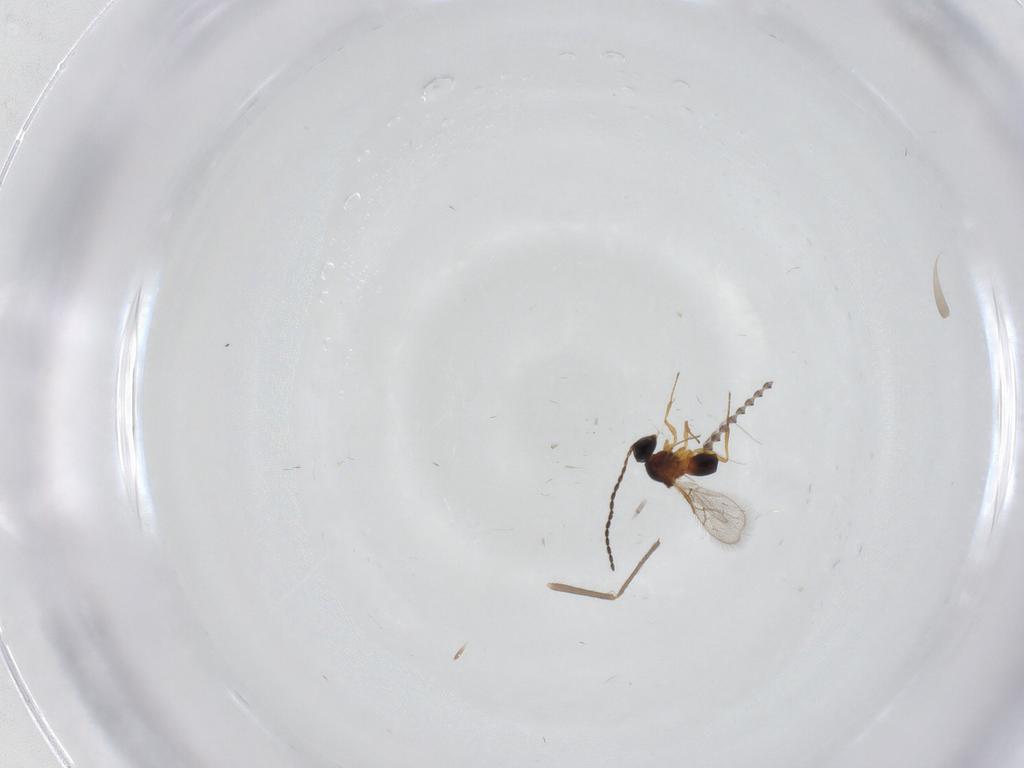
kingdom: Animalia
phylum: Arthropoda
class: Insecta
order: Hymenoptera
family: Figitidae
